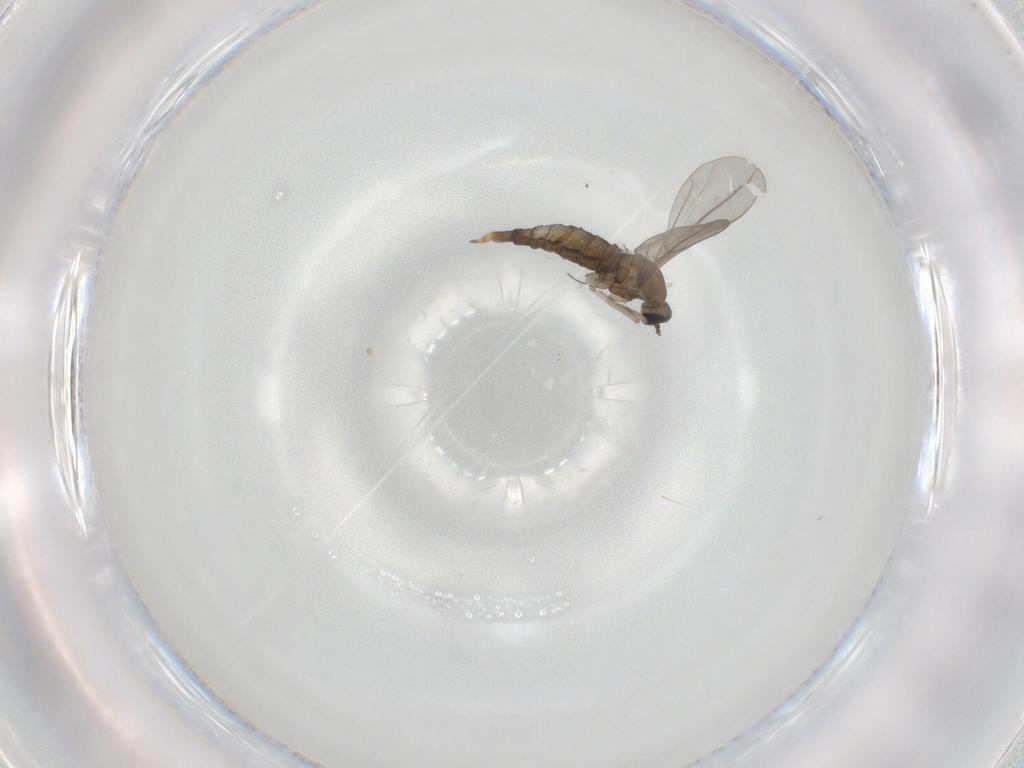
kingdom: Animalia
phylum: Arthropoda
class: Insecta
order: Diptera
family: Cecidomyiidae
